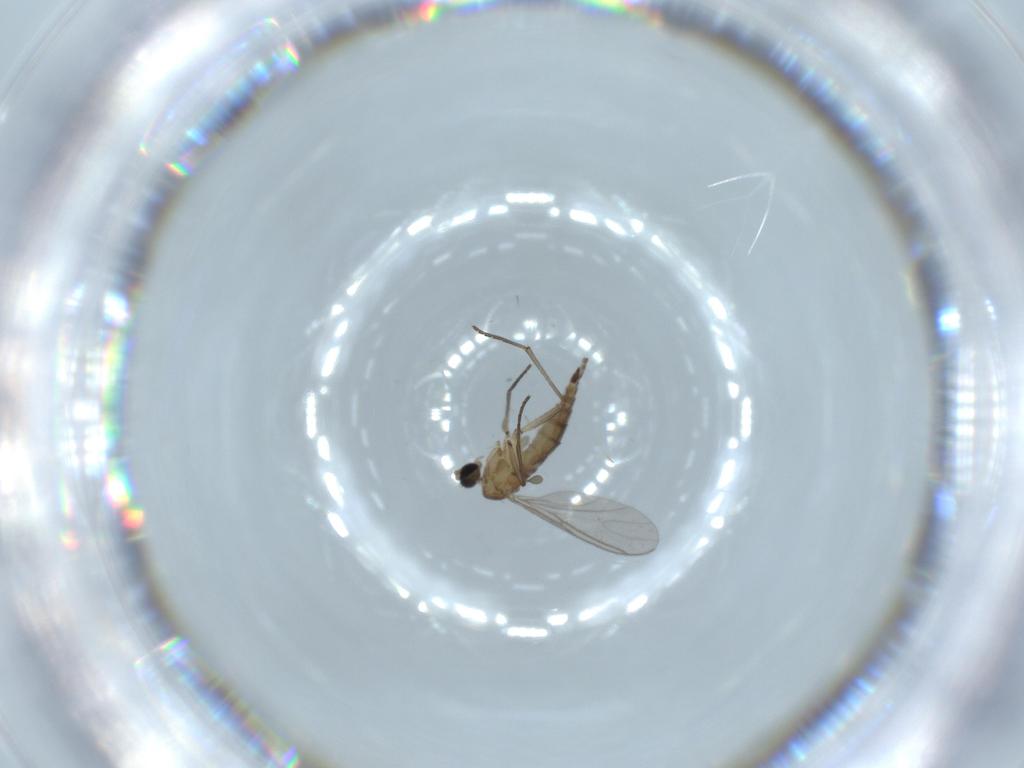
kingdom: Animalia
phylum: Arthropoda
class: Insecta
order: Diptera
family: Sciaridae
